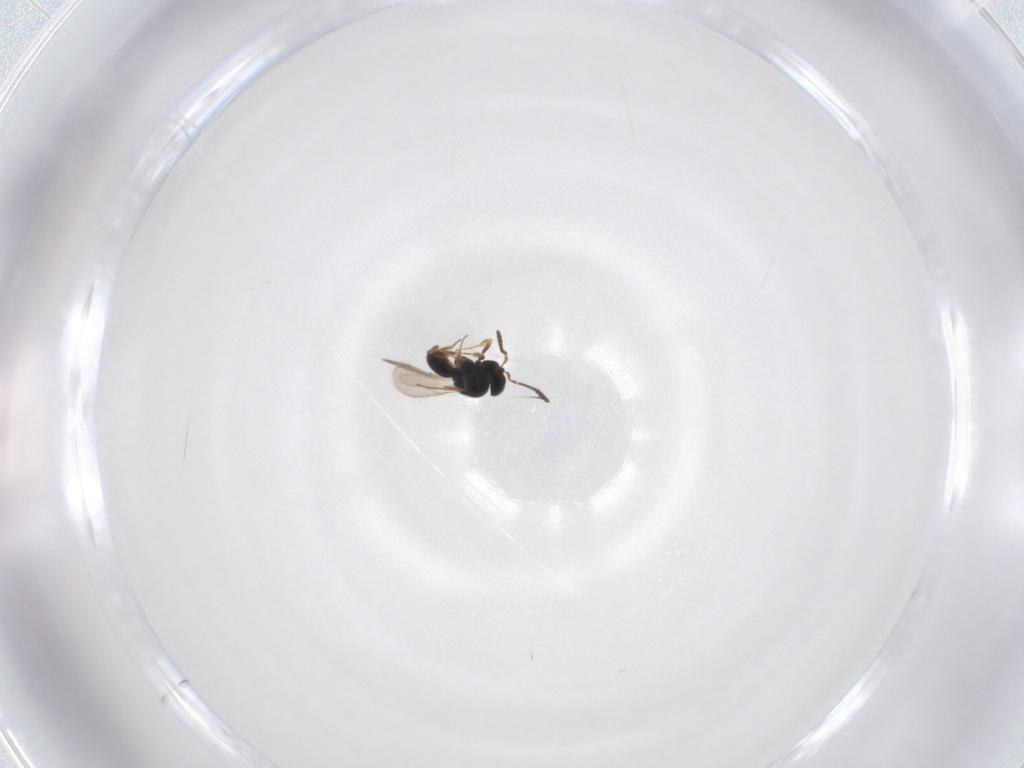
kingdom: Animalia
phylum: Arthropoda
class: Insecta
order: Hymenoptera
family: Scelionidae
